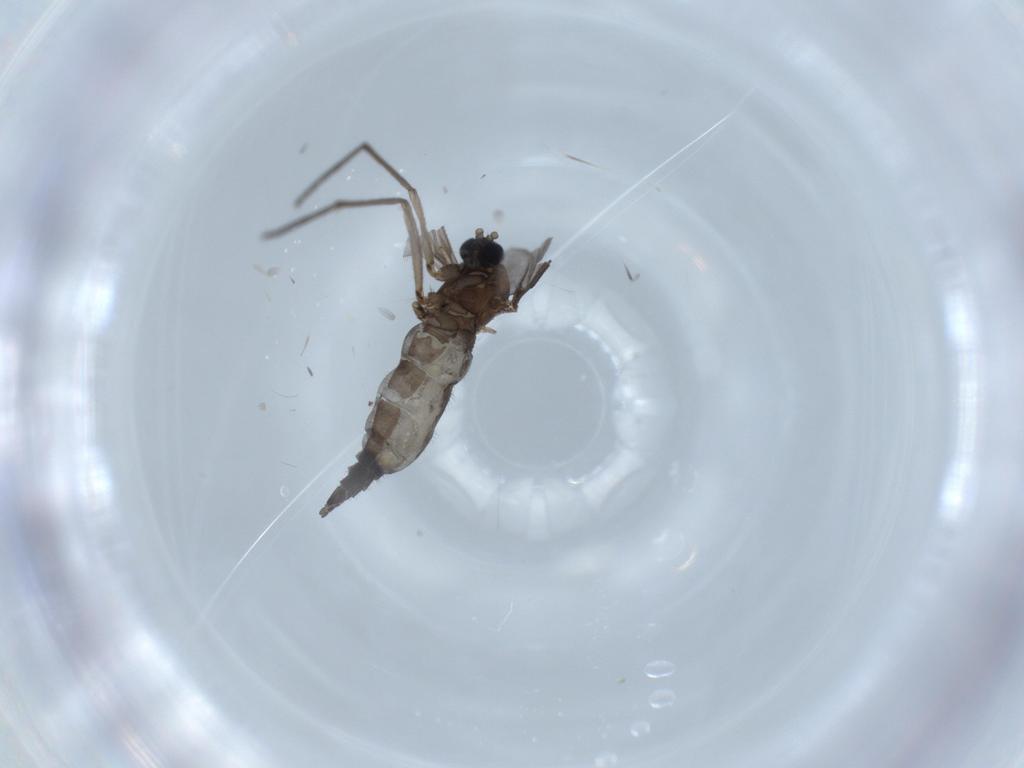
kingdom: Animalia
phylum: Arthropoda
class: Insecta
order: Diptera
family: Sciaridae
